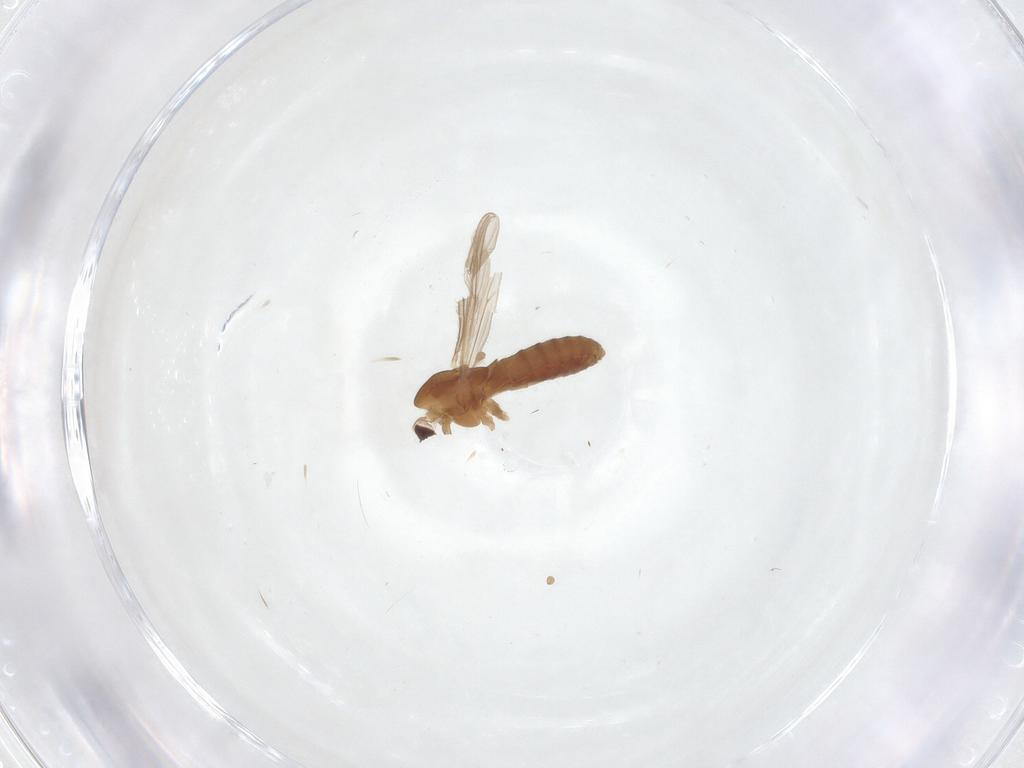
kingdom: Animalia
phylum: Arthropoda
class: Insecta
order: Diptera
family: Chironomidae
